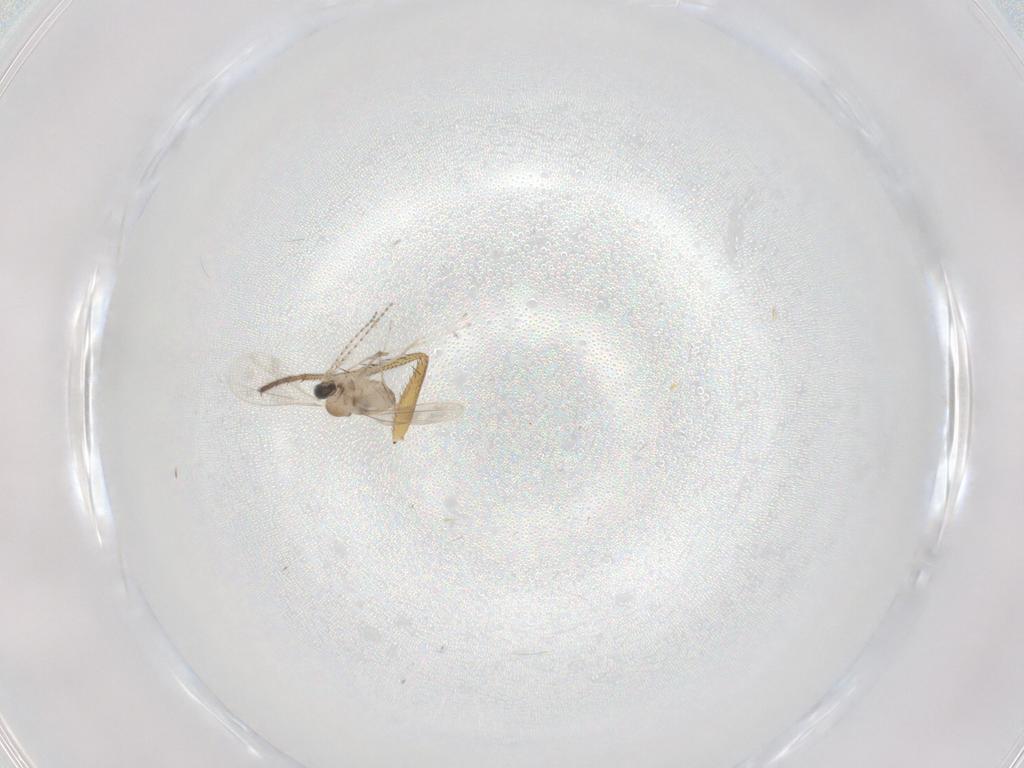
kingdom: Animalia
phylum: Arthropoda
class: Insecta
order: Diptera
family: Dolichopodidae
